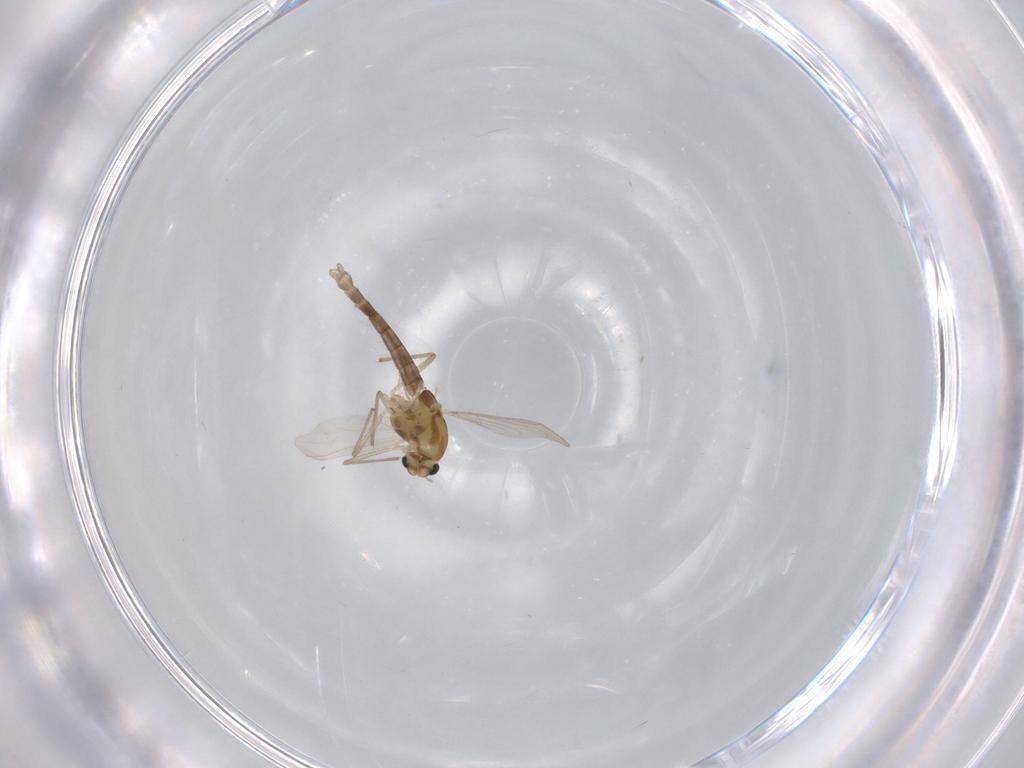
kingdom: Animalia
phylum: Arthropoda
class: Insecta
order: Diptera
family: Chironomidae
